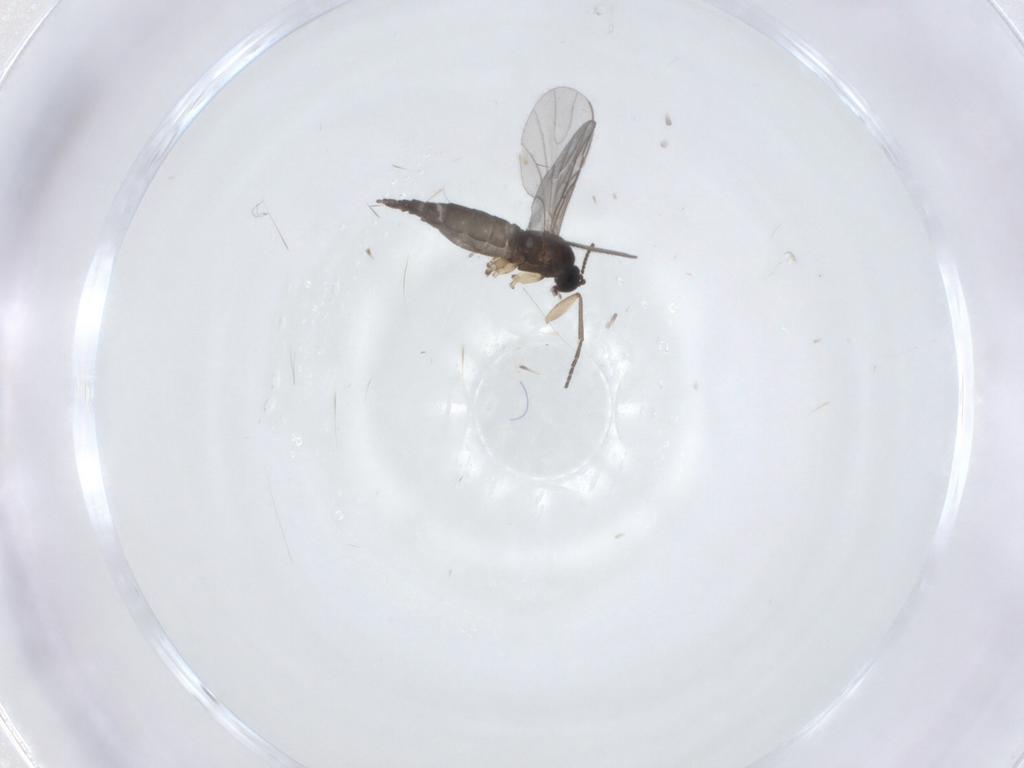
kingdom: Animalia
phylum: Arthropoda
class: Insecta
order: Diptera
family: Sciaridae
